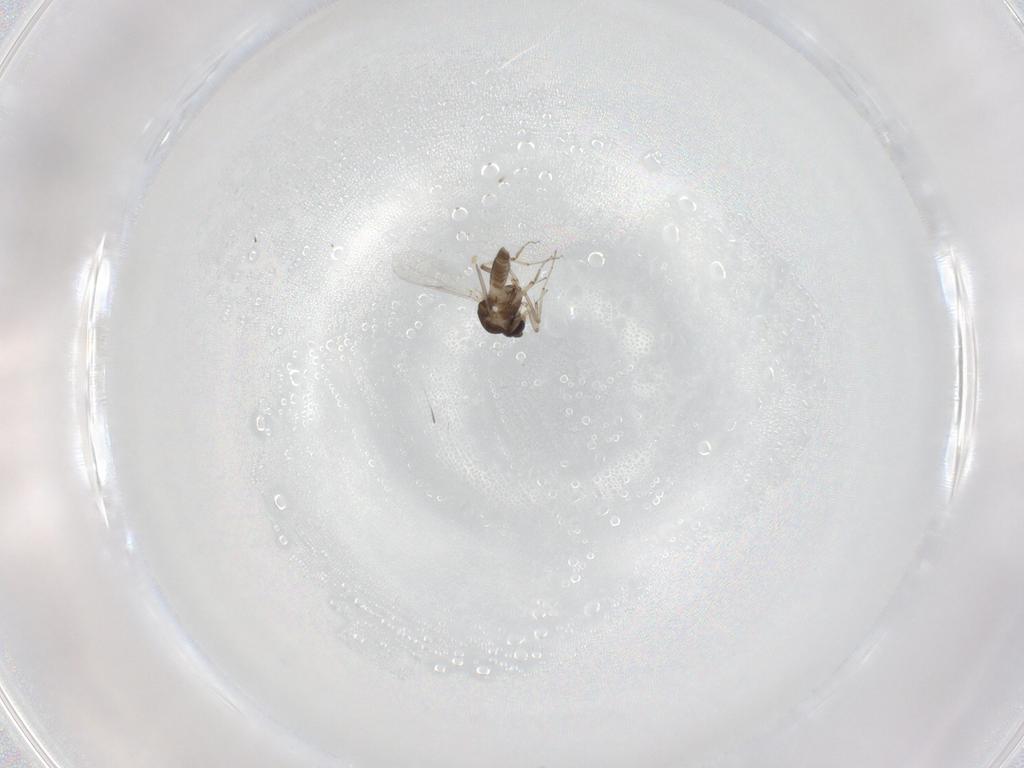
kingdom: Animalia
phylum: Arthropoda
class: Insecta
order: Diptera
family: Ceratopogonidae
